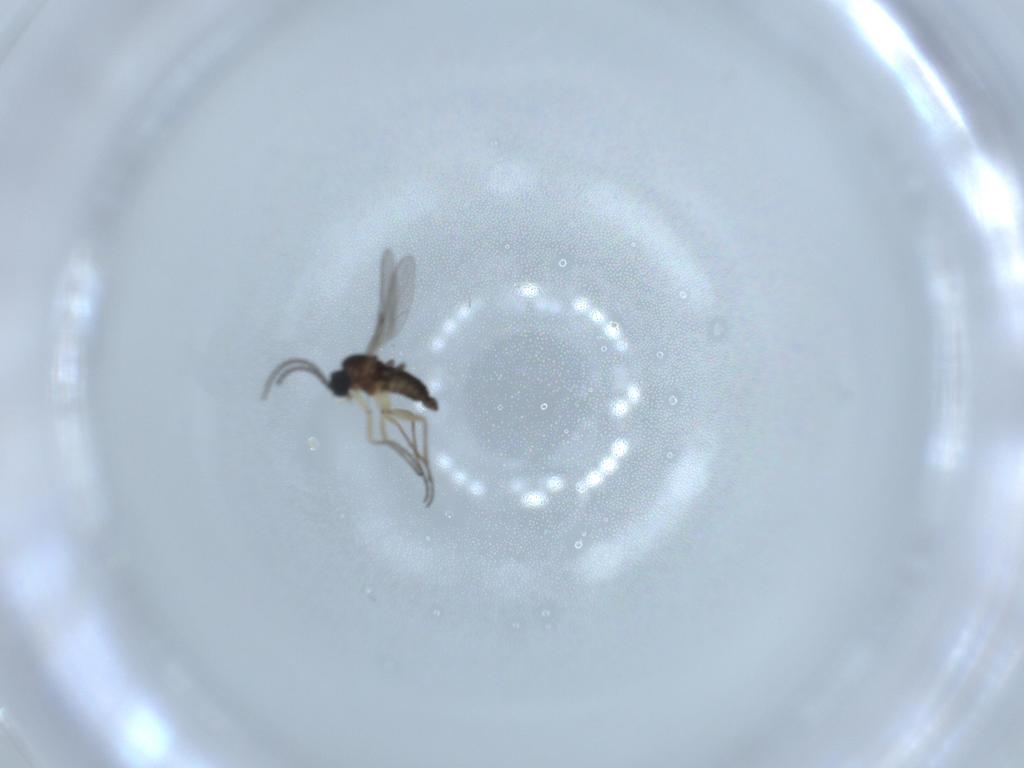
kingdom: Animalia
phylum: Arthropoda
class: Insecta
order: Diptera
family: Sciaridae
